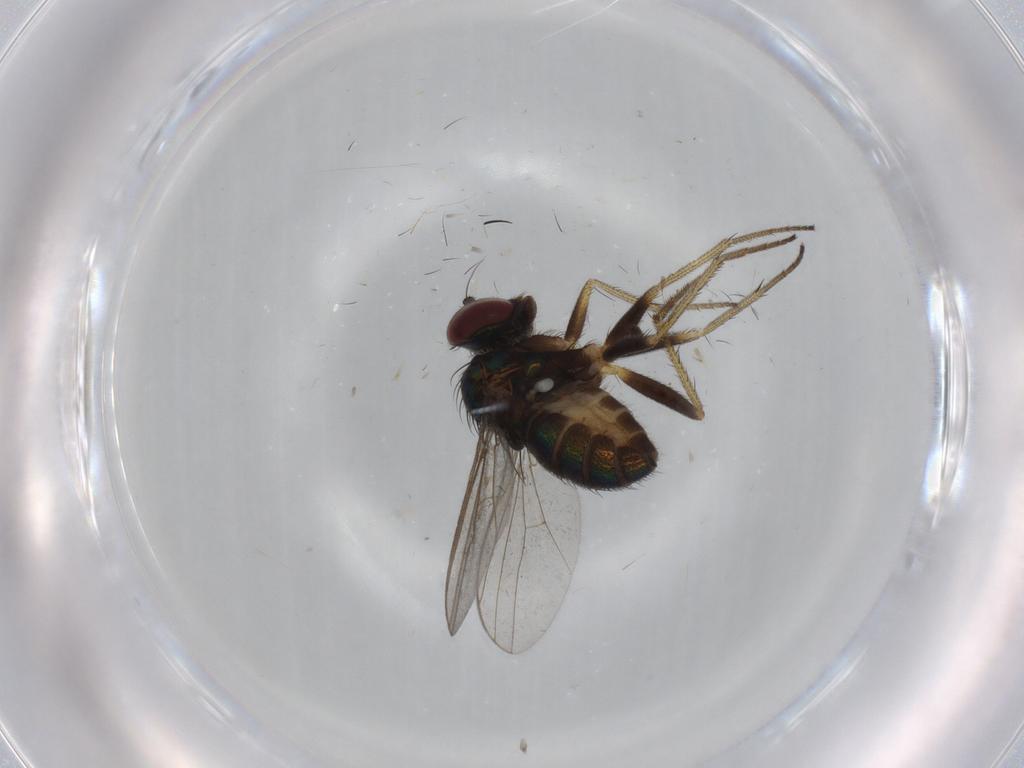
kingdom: Animalia
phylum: Arthropoda
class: Insecta
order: Diptera
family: Dolichopodidae
